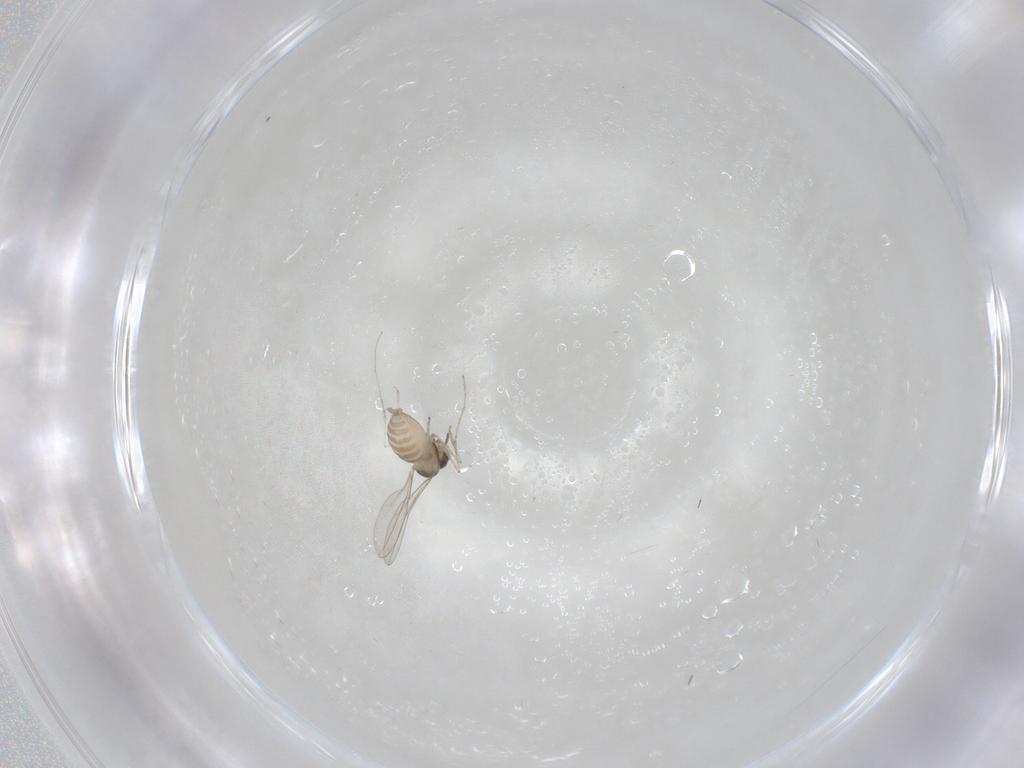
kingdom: Animalia
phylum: Arthropoda
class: Insecta
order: Diptera
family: Cecidomyiidae
